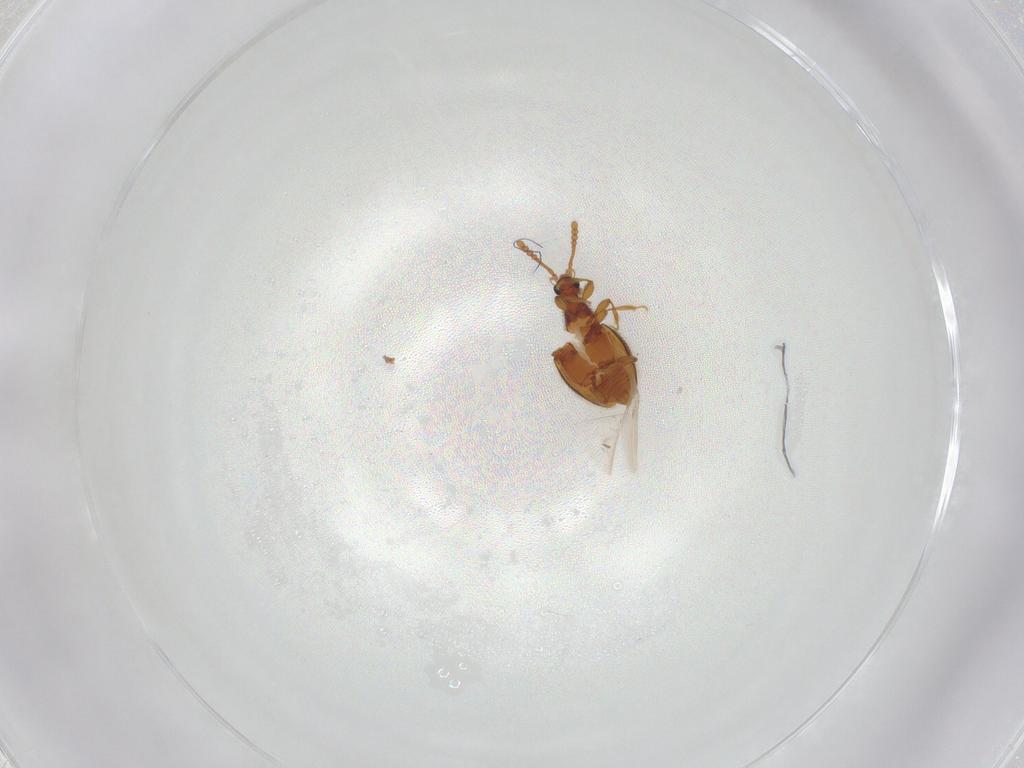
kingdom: Animalia
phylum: Arthropoda
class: Insecta
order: Coleoptera
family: Staphylinidae
